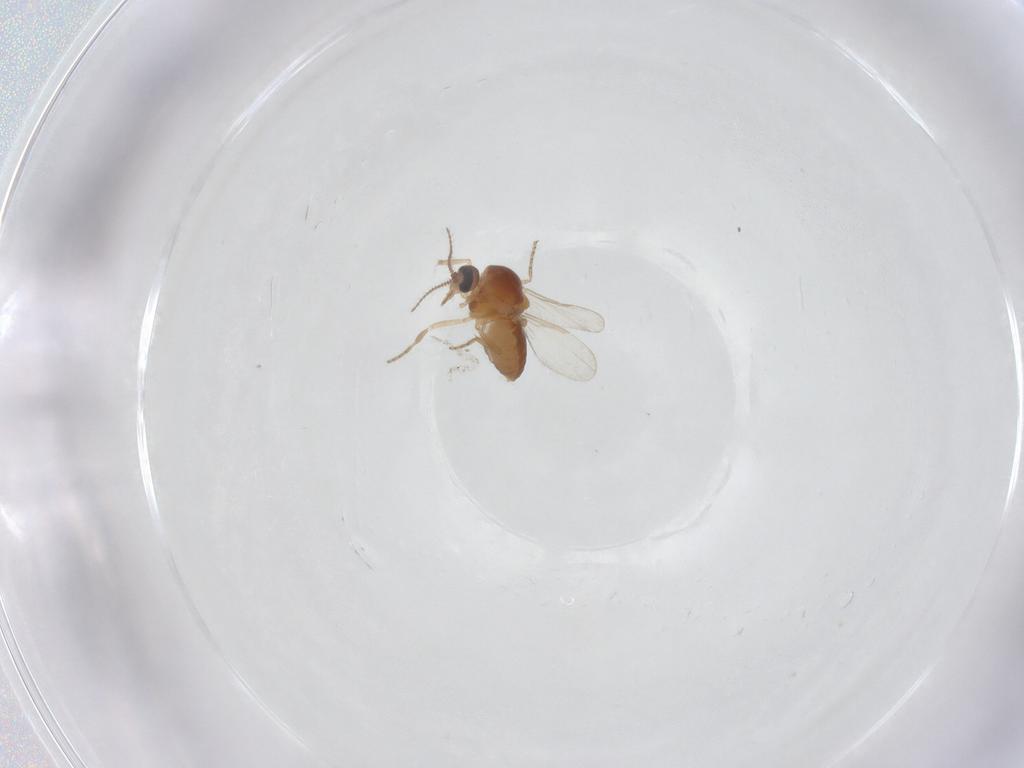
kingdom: Animalia
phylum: Arthropoda
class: Insecta
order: Diptera
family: Ceratopogonidae
